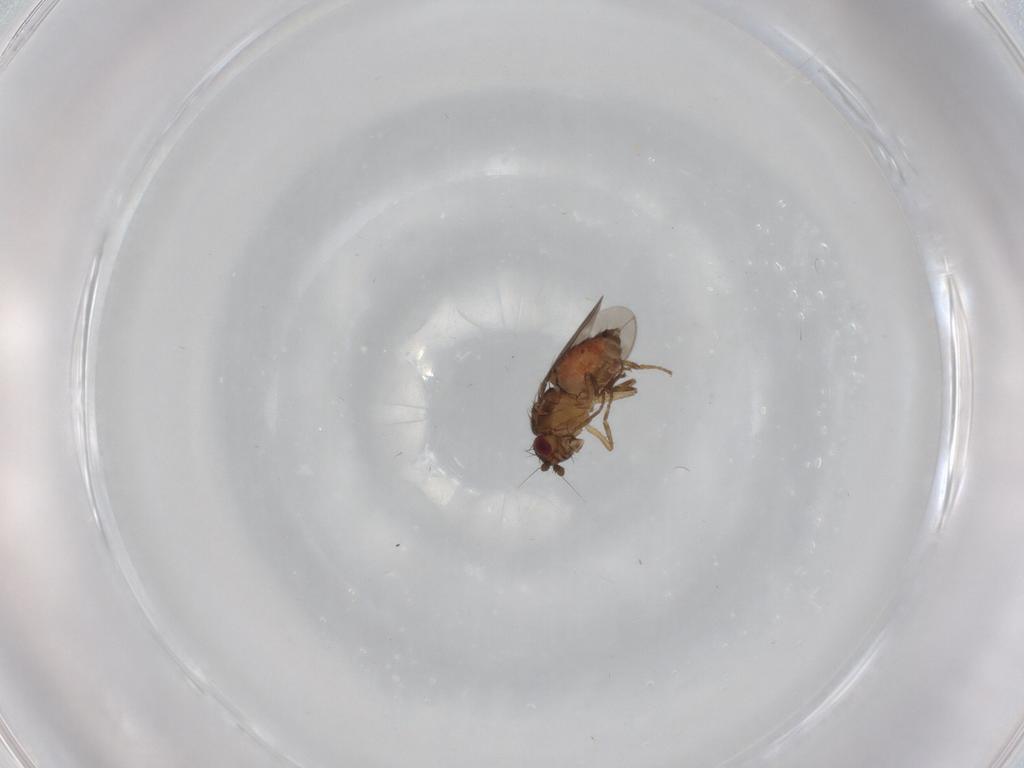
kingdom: Animalia
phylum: Arthropoda
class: Insecta
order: Diptera
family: Sphaeroceridae
